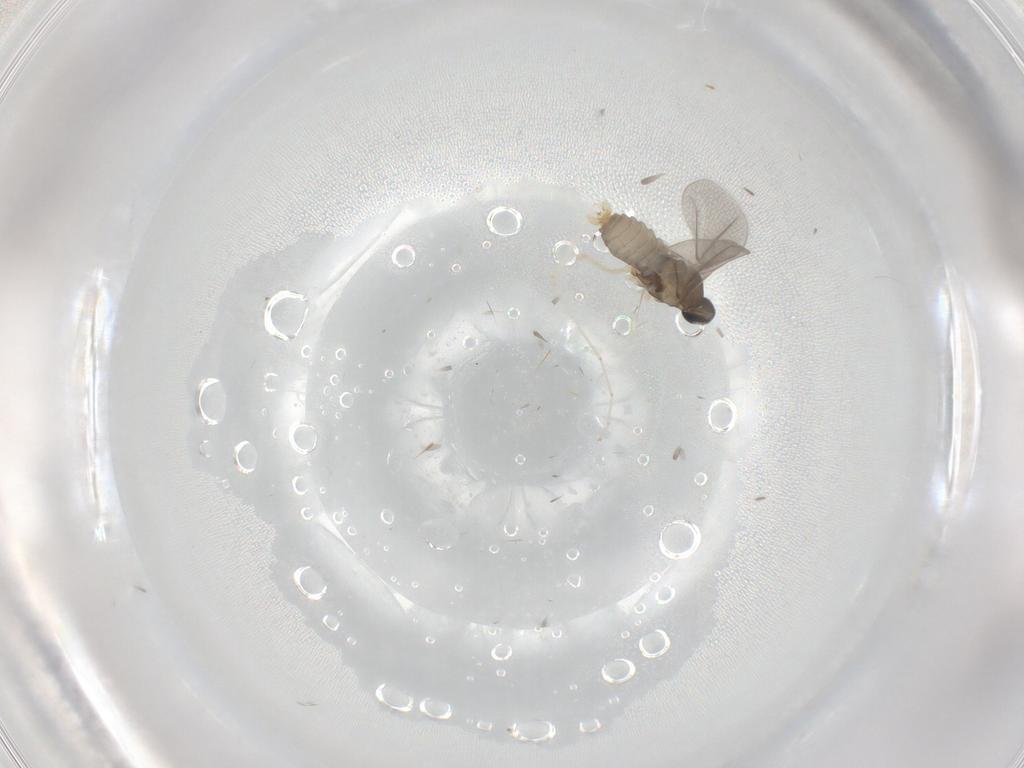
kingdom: Animalia
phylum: Arthropoda
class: Insecta
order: Diptera
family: Cecidomyiidae
